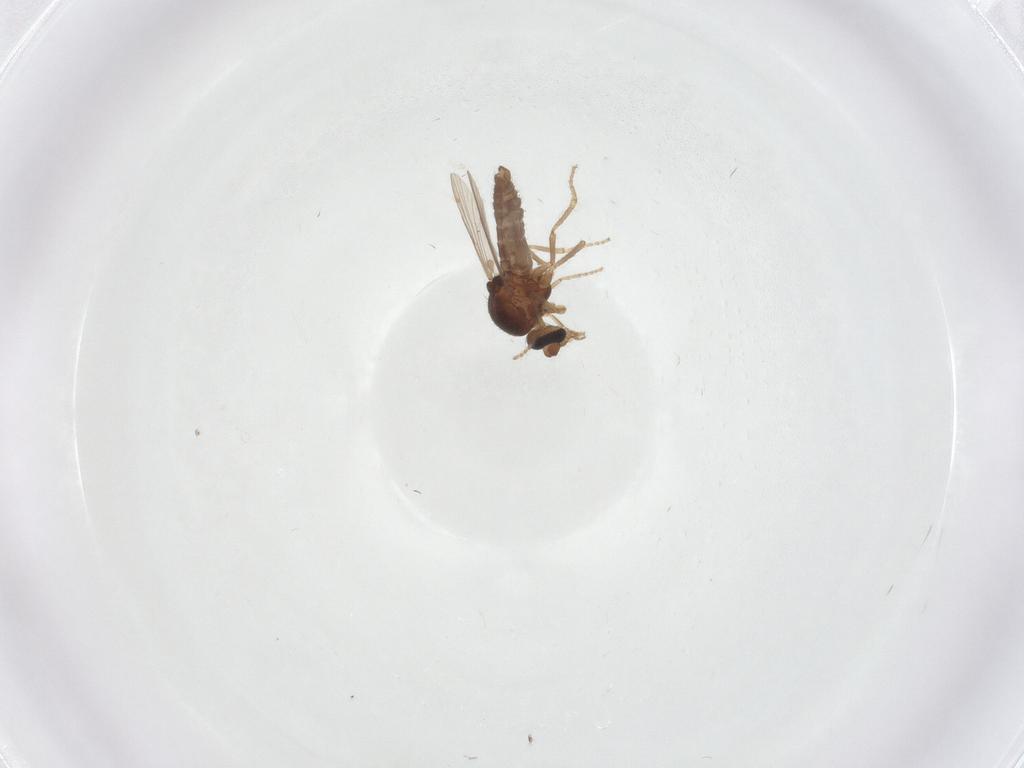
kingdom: Animalia
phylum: Arthropoda
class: Insecta
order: Diptera
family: Ceratopogonidae
